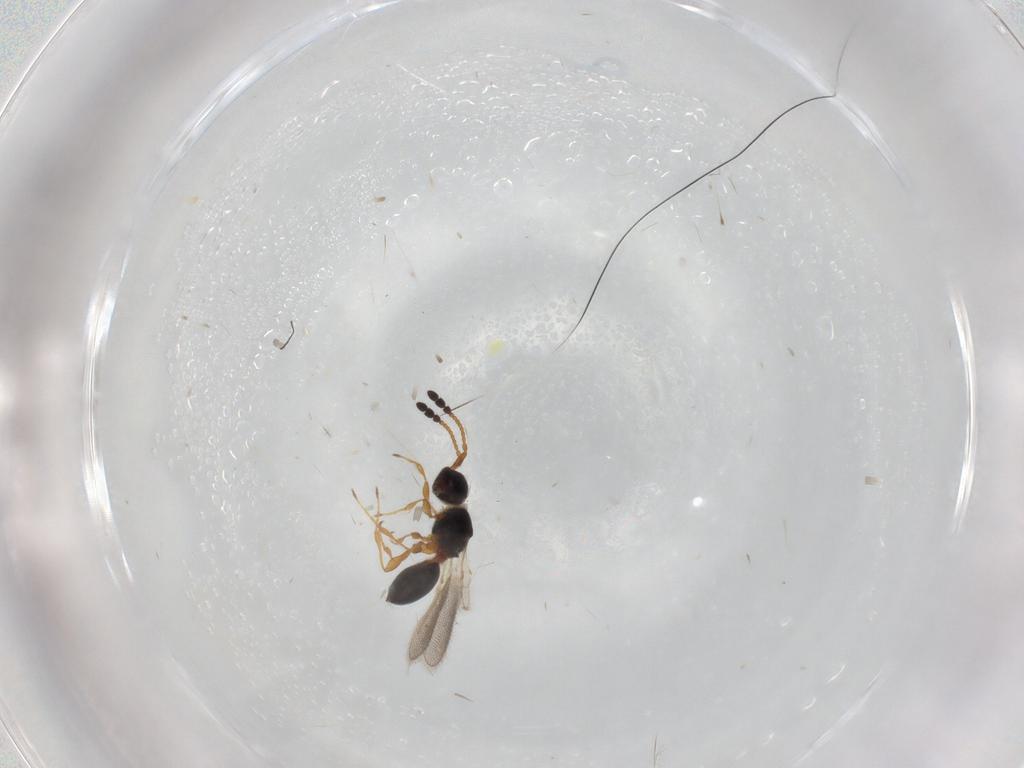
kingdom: Animalia
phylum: Arthropoda
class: Insecta
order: Hymenoptera
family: Diapriidae
